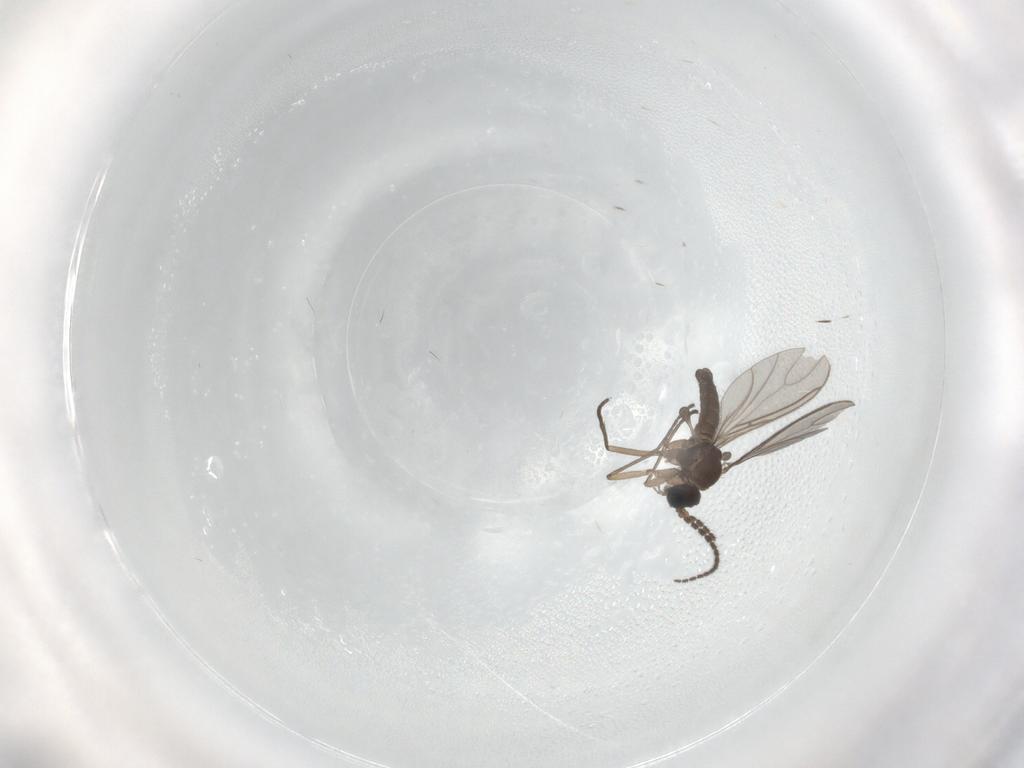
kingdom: Animalia
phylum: Arthropoda
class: Insecta
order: Diptera
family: Sciaridae
